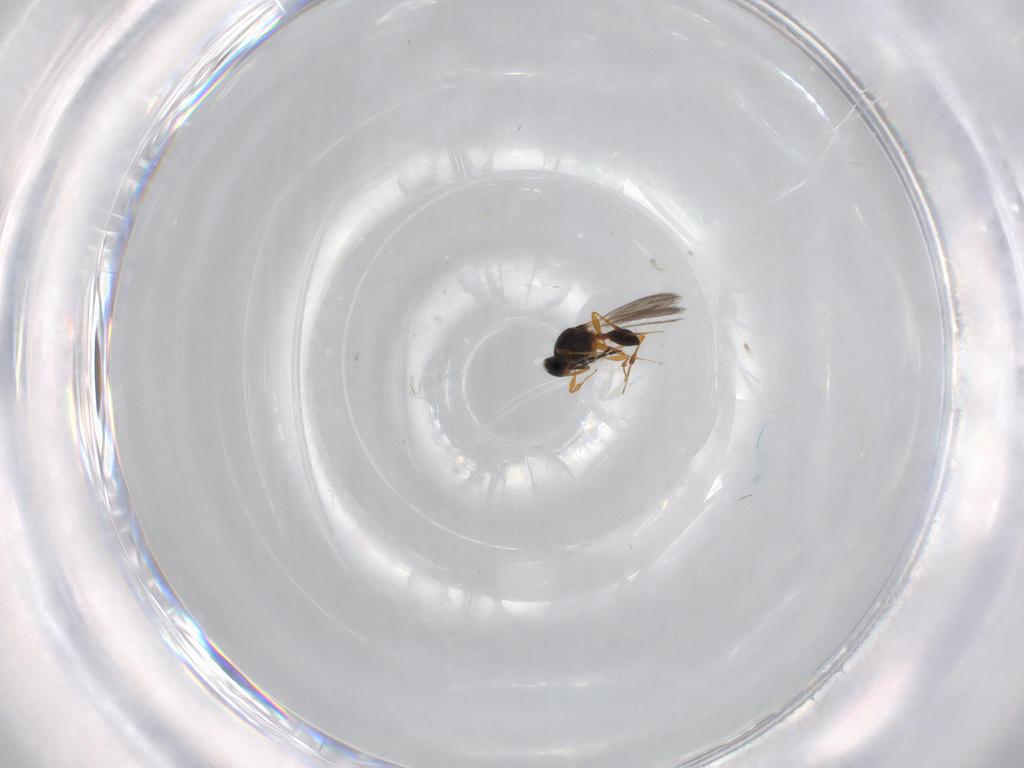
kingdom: Animalia
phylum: Arthropoda
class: Insecta
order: Hymenoptera
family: Platygastridae
